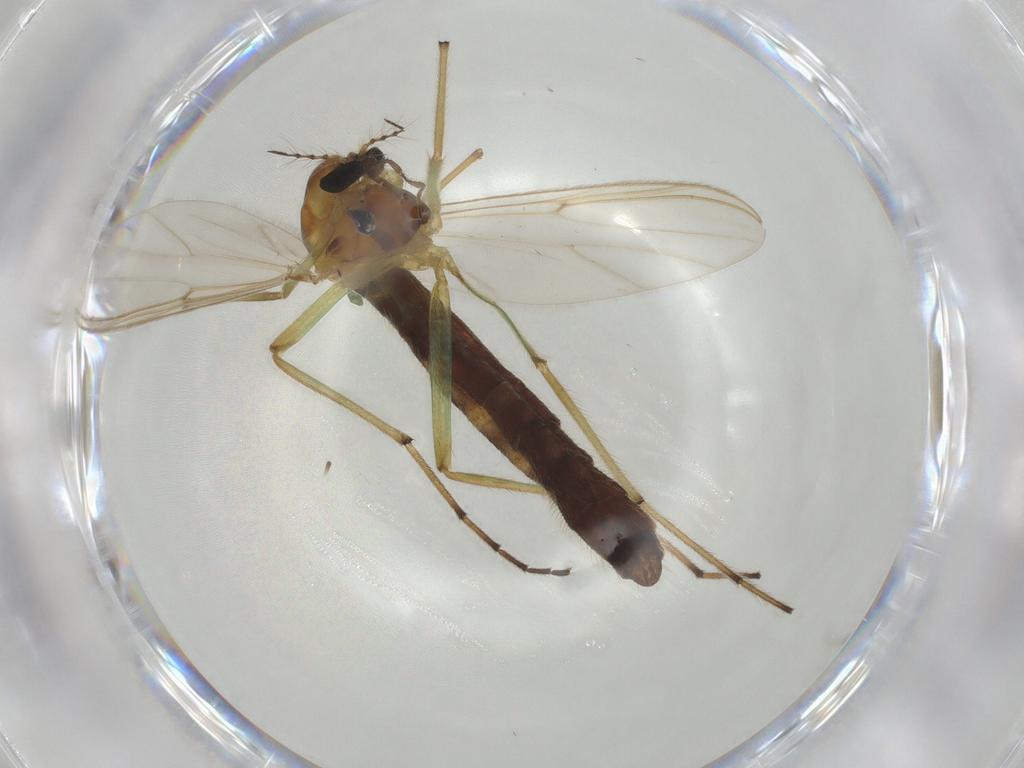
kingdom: Animalia
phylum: Arthropoda
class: Insecta
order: Diptera
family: Chironomidae
